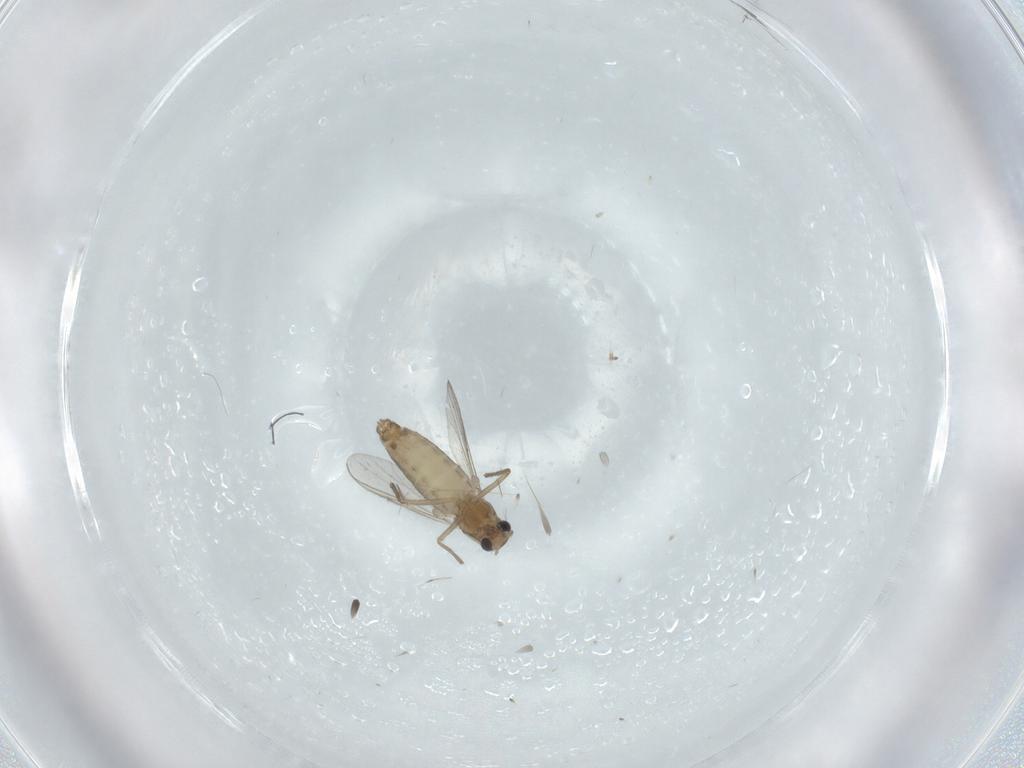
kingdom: Animalia
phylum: Arthropoda
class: Insecta
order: Diptera
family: Chironomidae
